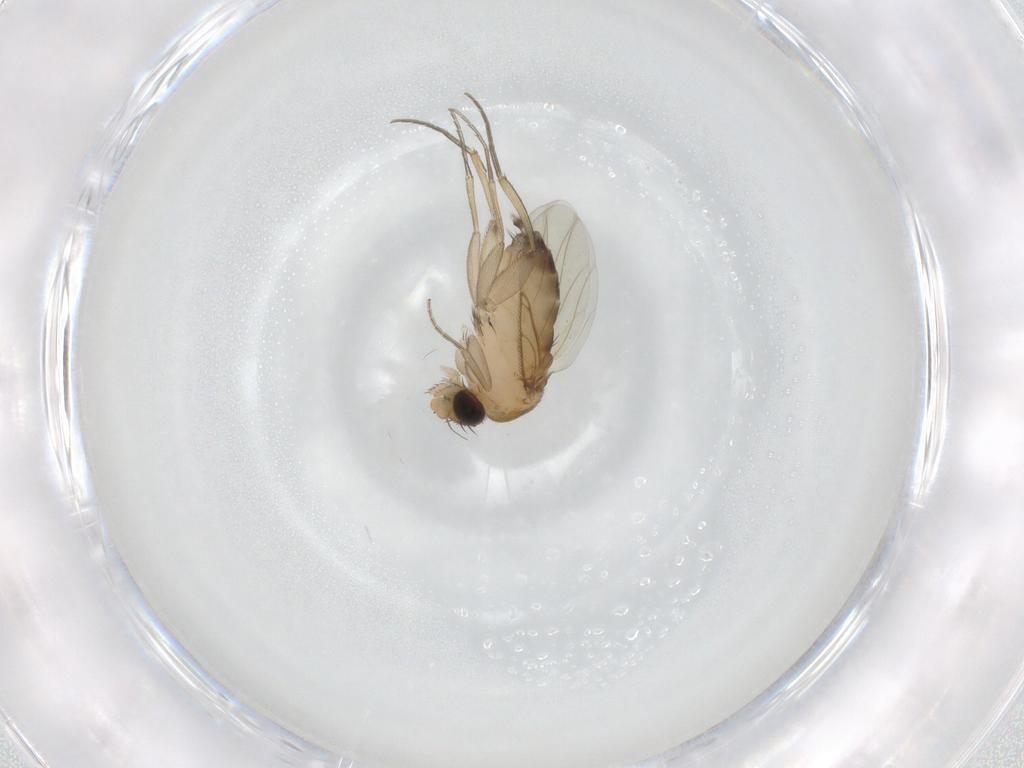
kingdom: Animalia
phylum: Arthropoda
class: Insecta
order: Diptera
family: Phoridae
